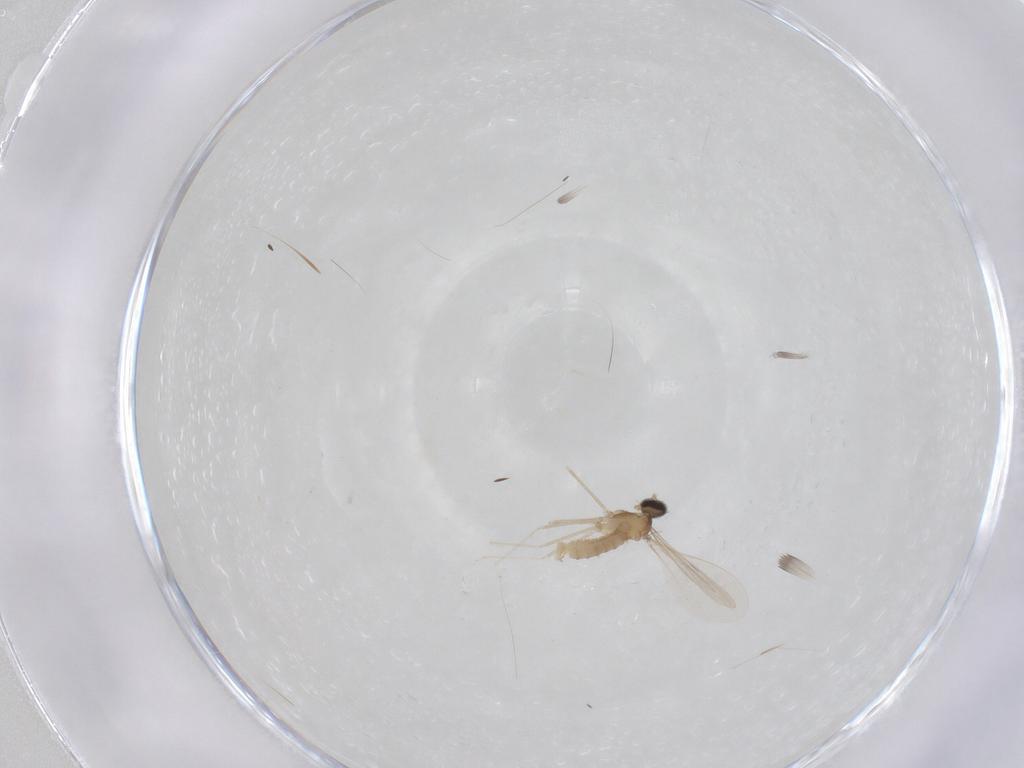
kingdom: Animalia
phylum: Arthropoda
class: Insecta
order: Diptera
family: Cecidomyiidae
